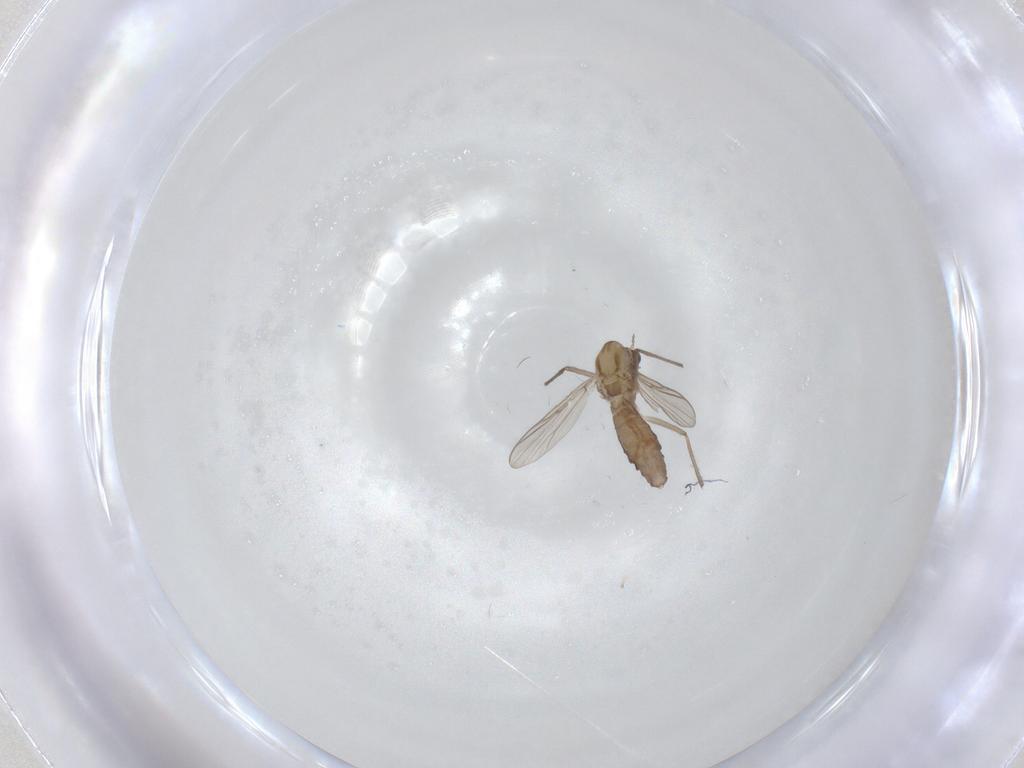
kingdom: Animalia
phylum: Arthropoda
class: Insecta
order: Diptera
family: Chironomidae
